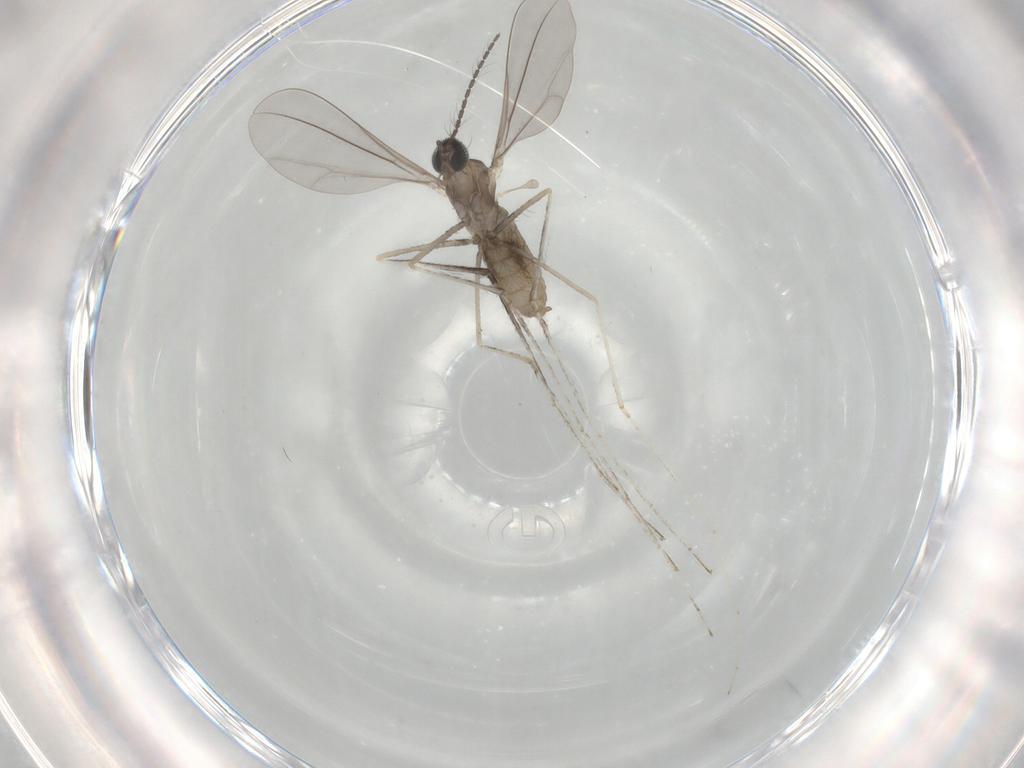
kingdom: Animalia
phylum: Arthropoda
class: Insecta
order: Diptera
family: Cecidomyiidae
